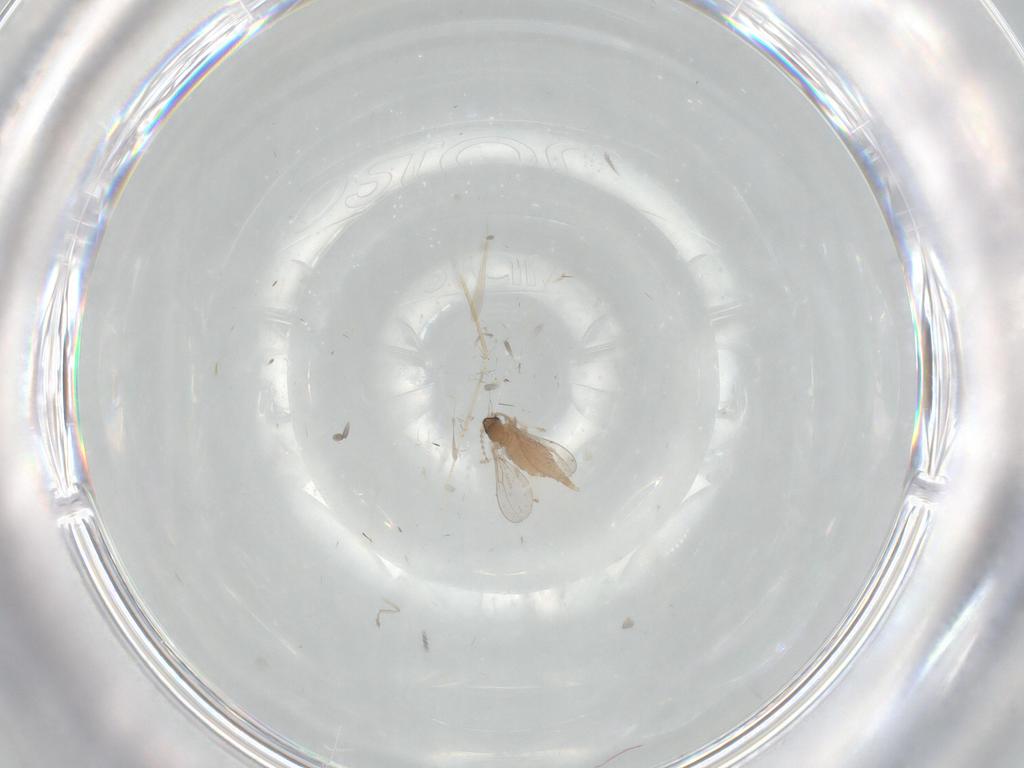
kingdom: Animalia
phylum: Arthropoda
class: Insecta
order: Diptera
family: Cecidomyiidae
